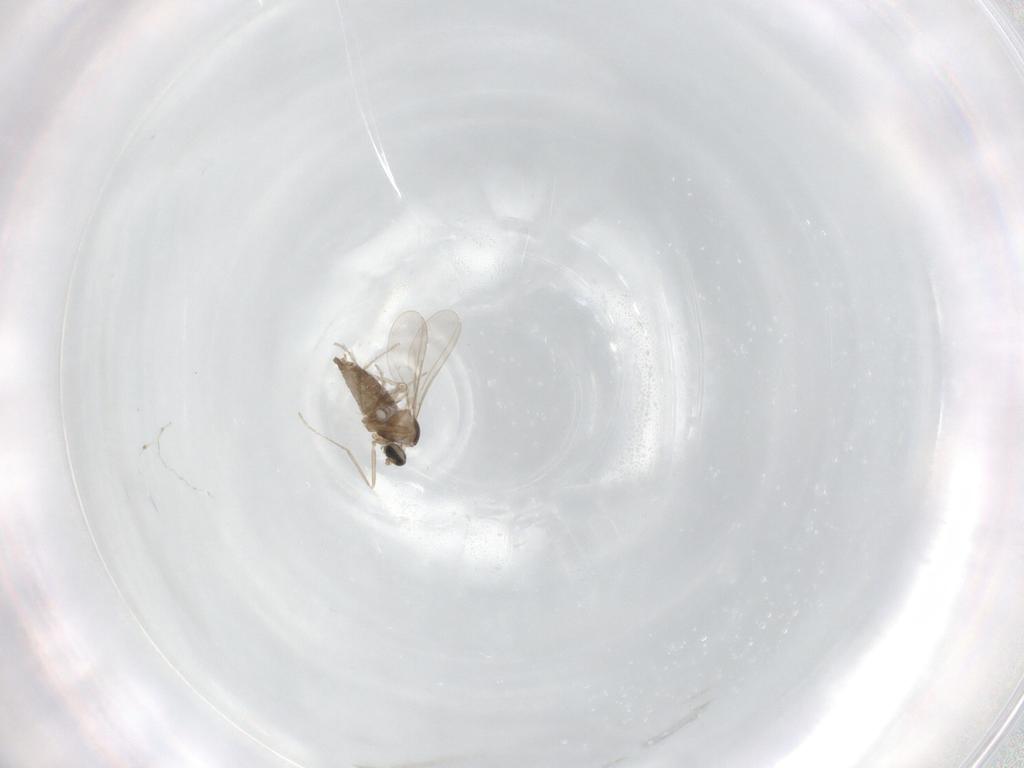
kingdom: Animalia
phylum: Arthropoda
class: Insecta
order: Diptera
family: Cecidomyiidae
